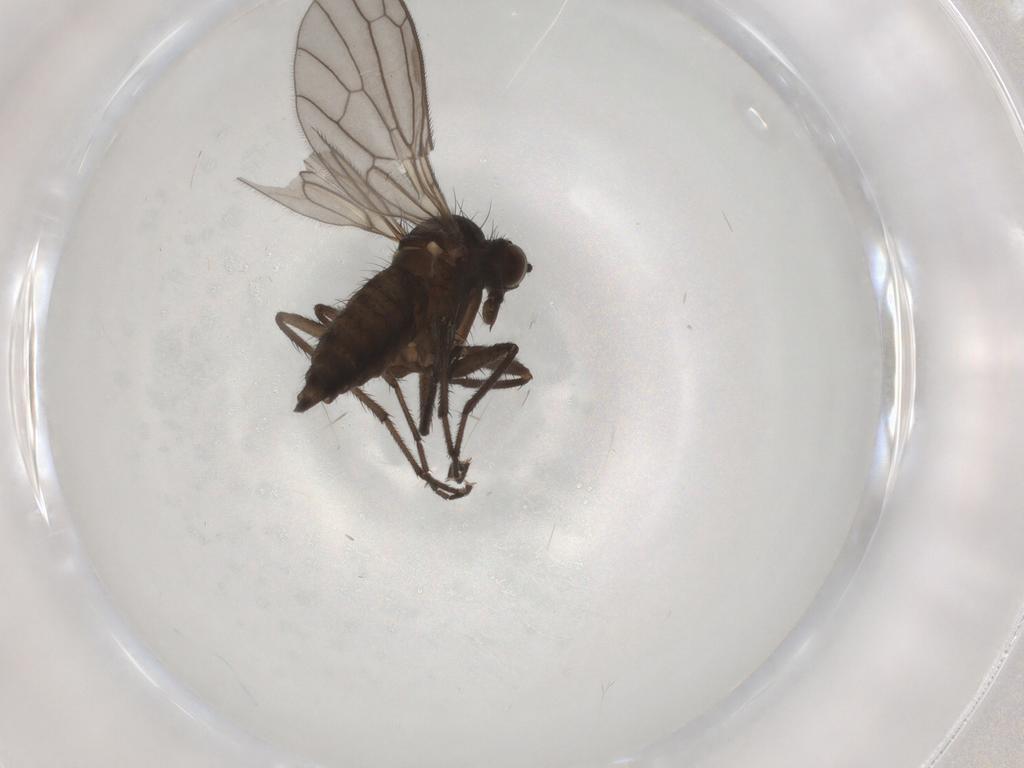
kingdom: Animalia
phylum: Arthropoda
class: Insecta
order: Diptera
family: Empididae
